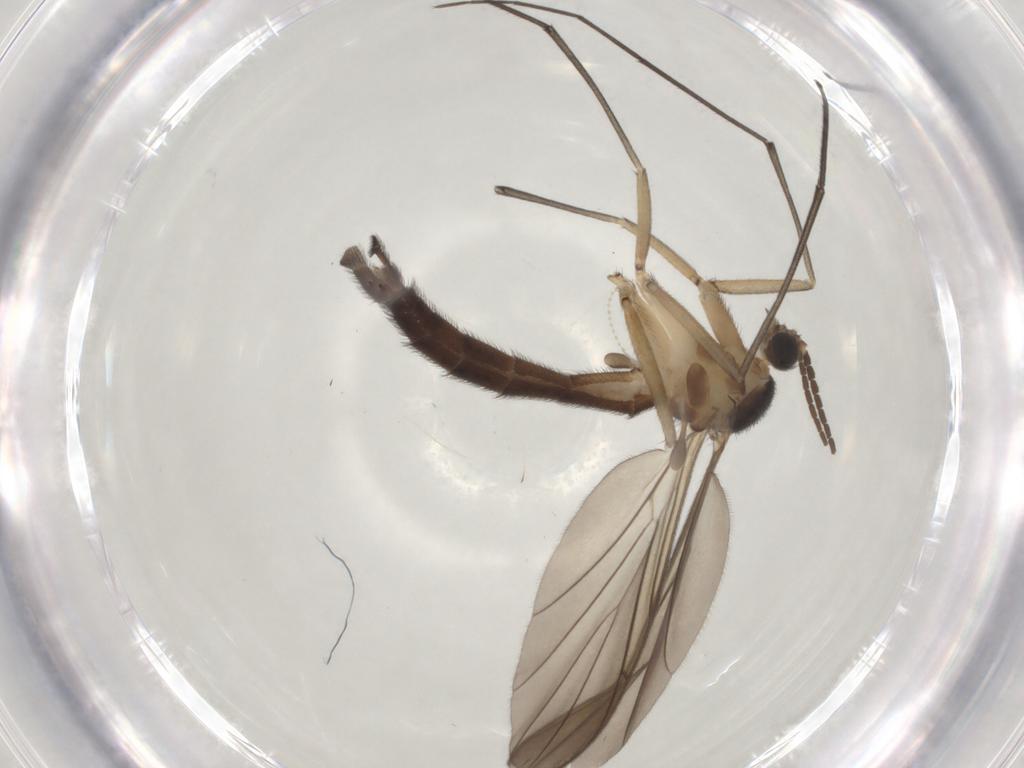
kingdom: Animalia
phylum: Arthropoda
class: Insecta
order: Diptera
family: Keroplatidae
